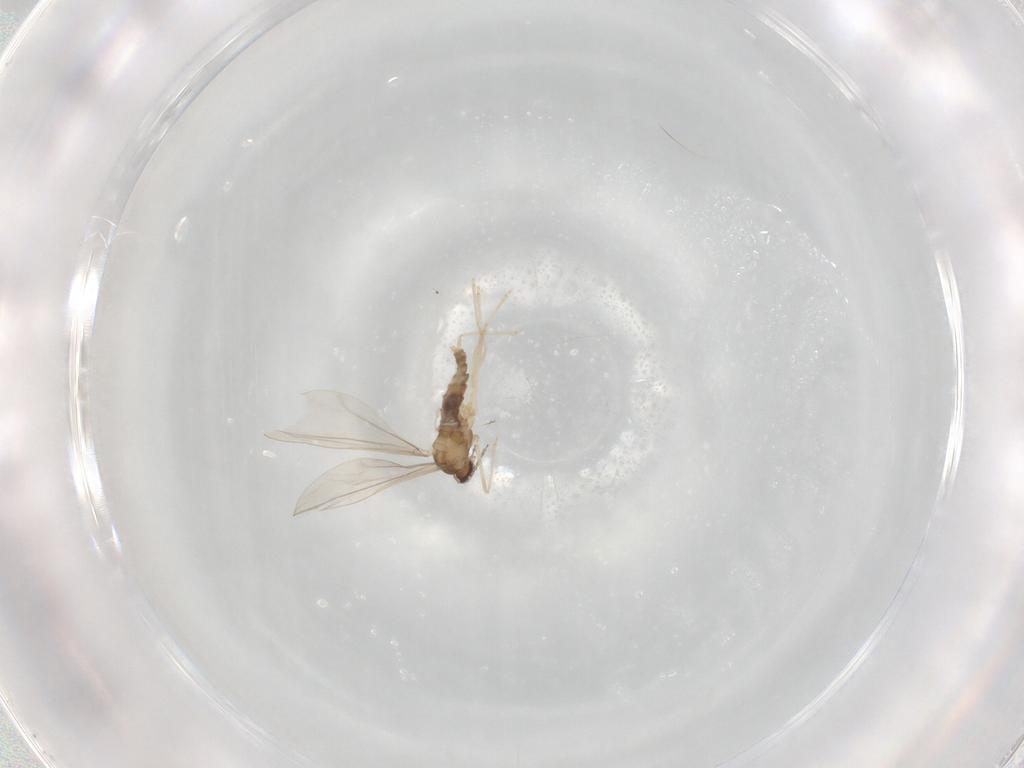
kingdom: Animalia
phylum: Arthropoda
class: Insecta
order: Diptera
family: Cecidomyiidae
